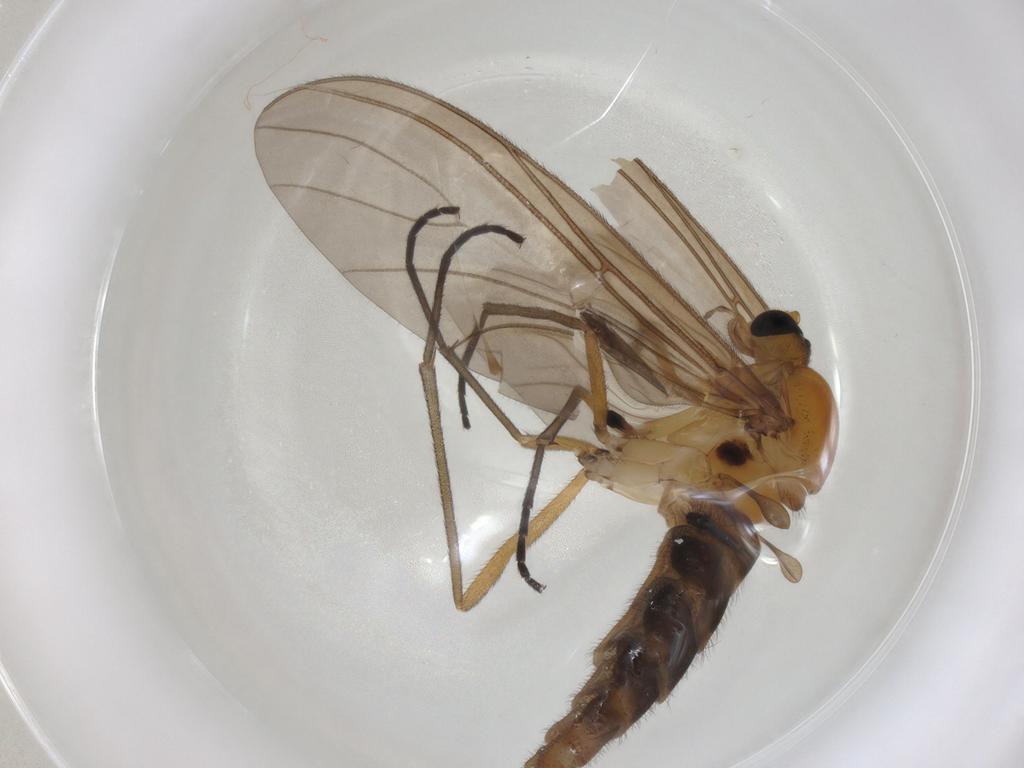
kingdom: Animalia
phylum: Arthropoda
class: Insecta
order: Diptera
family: Sciaridae
